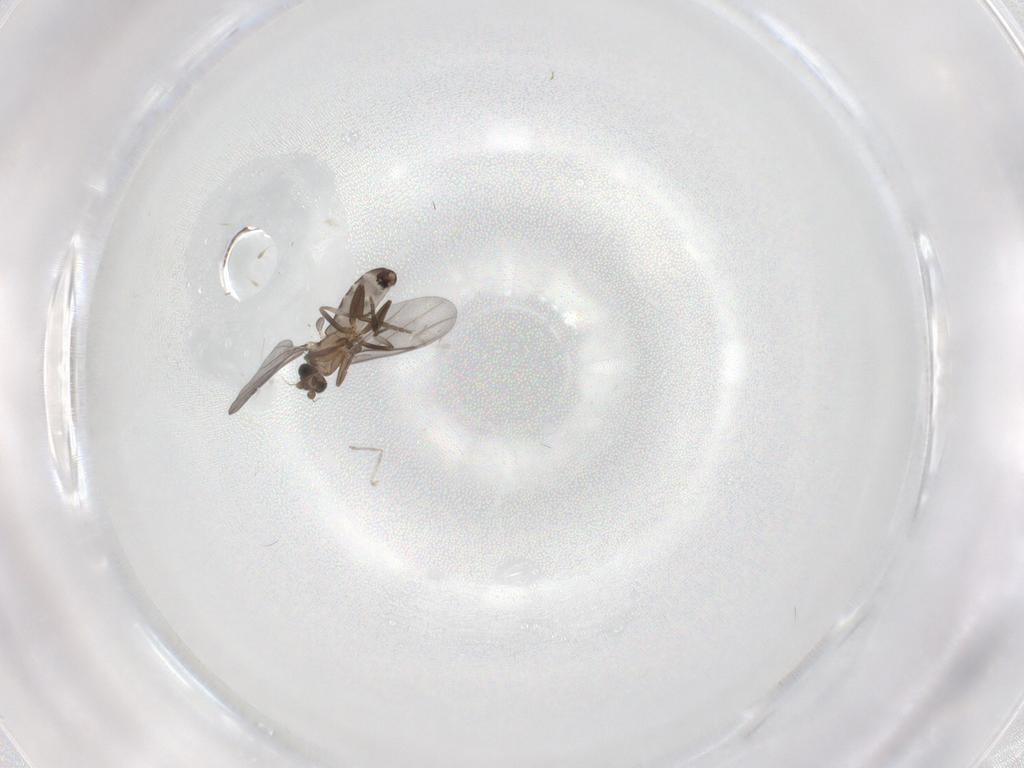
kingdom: Animalia
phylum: Arthropoda
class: Insecta
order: Diptera
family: Phoridae
